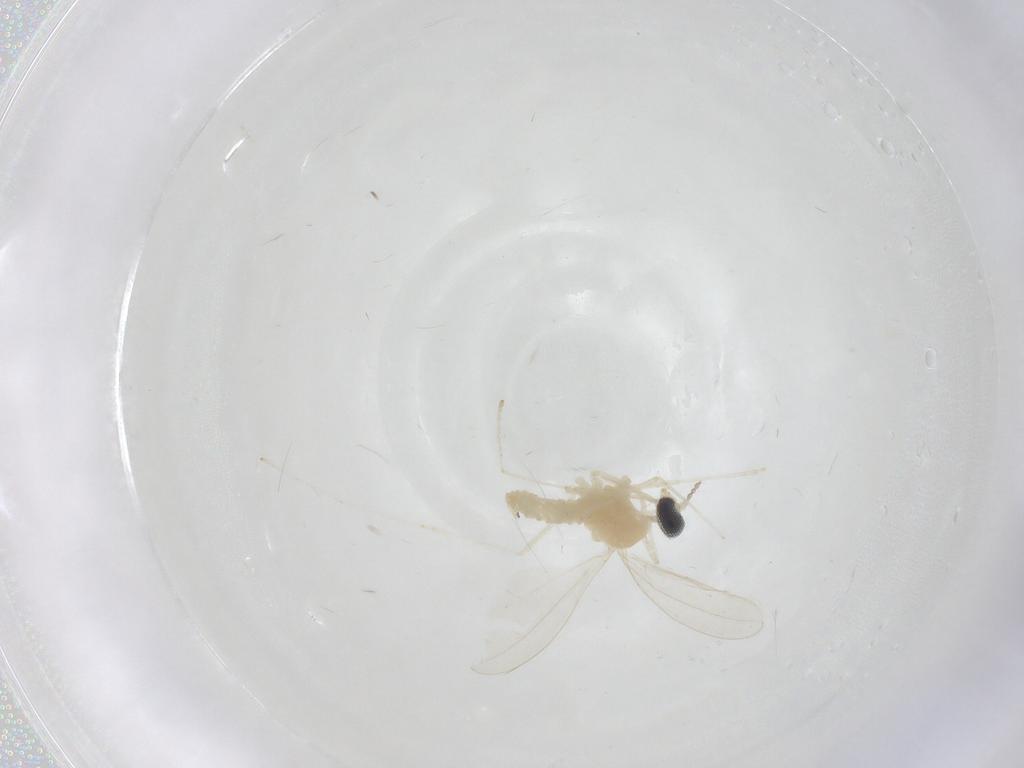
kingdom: Animalia
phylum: Arthropoda
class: Insecta
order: Diptera
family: Cecidomyiidae
